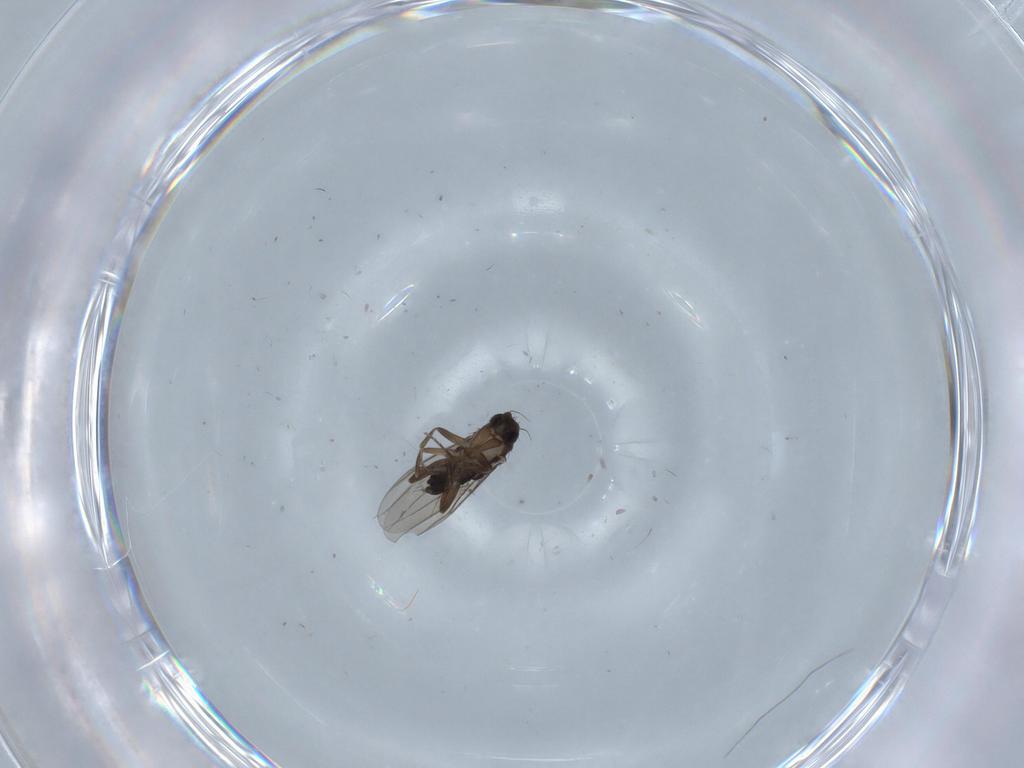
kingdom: Animalia
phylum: Arthropoda
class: Insecta
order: Diptera
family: Phoridae
